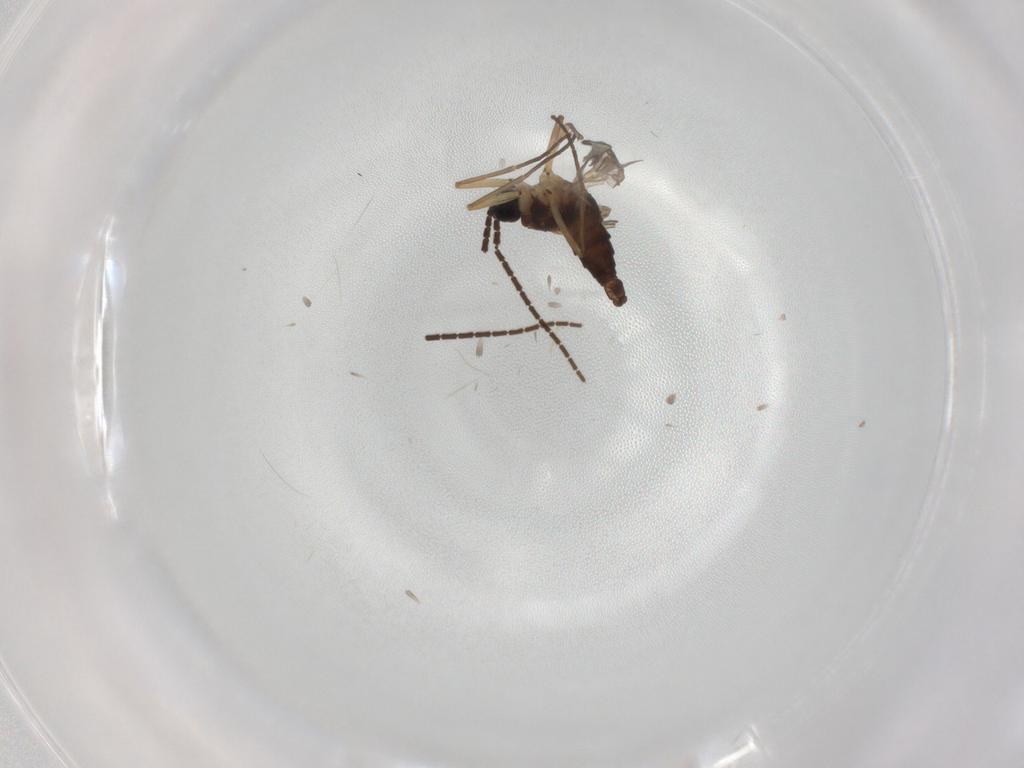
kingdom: Animalia
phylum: Arthropoda
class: Insecta
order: Diptera
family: Sciaridae
